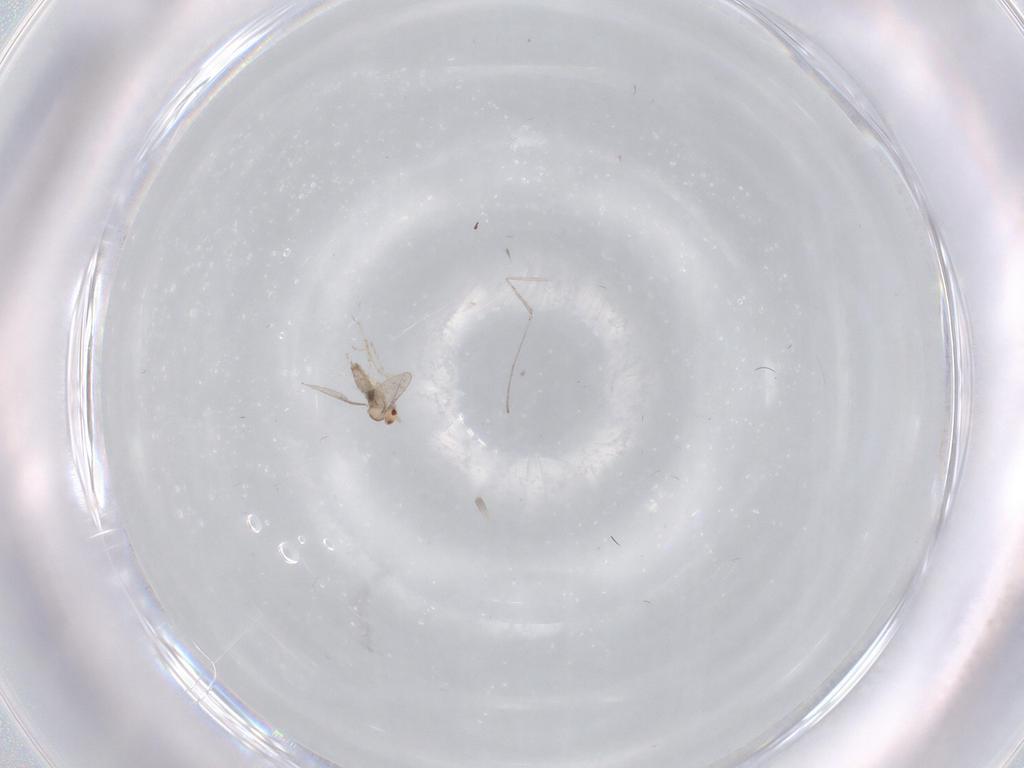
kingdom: Animalia
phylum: Arthropoda
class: Insecta
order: Diptera
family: Cecidomyiidae
